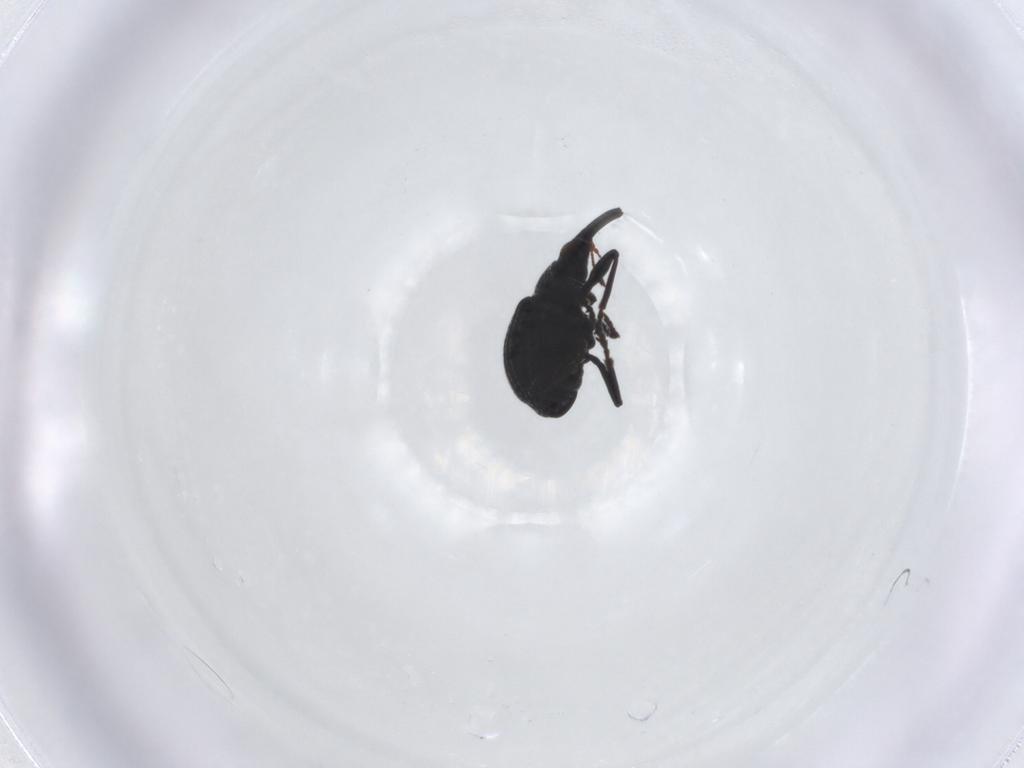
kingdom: Animalia
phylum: Arthropoda
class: Insecta
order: Coleoptera
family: Brentidae
